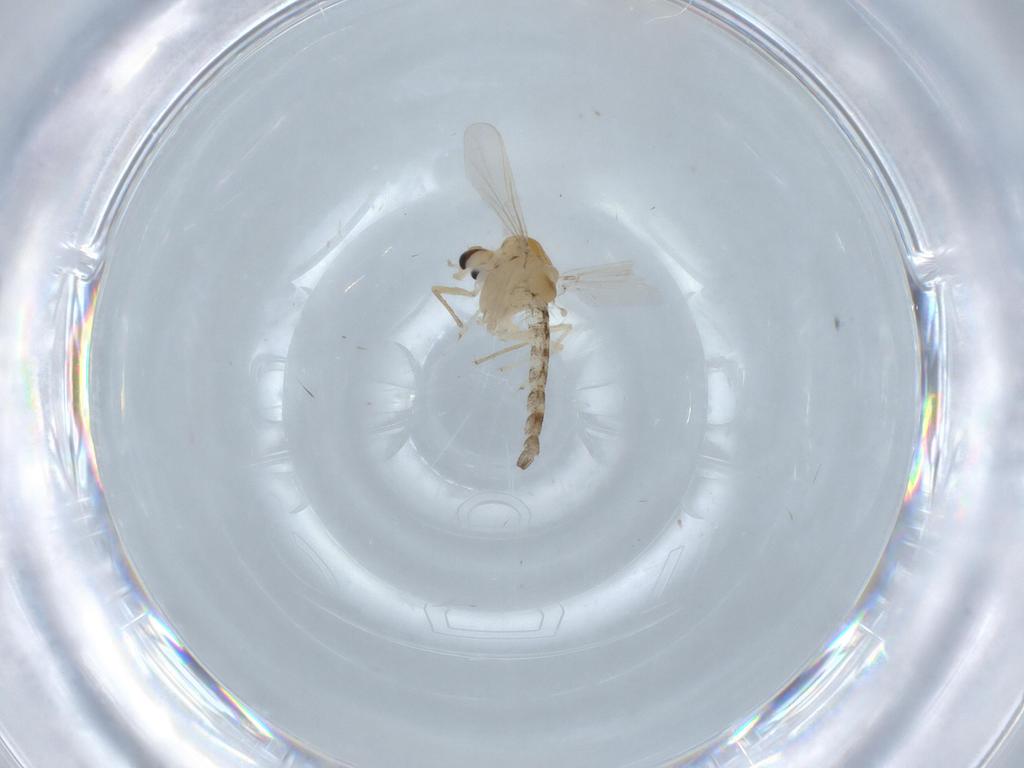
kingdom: Animalia
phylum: Arthropoda
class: Insecta
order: Diptera
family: Chironomidae
